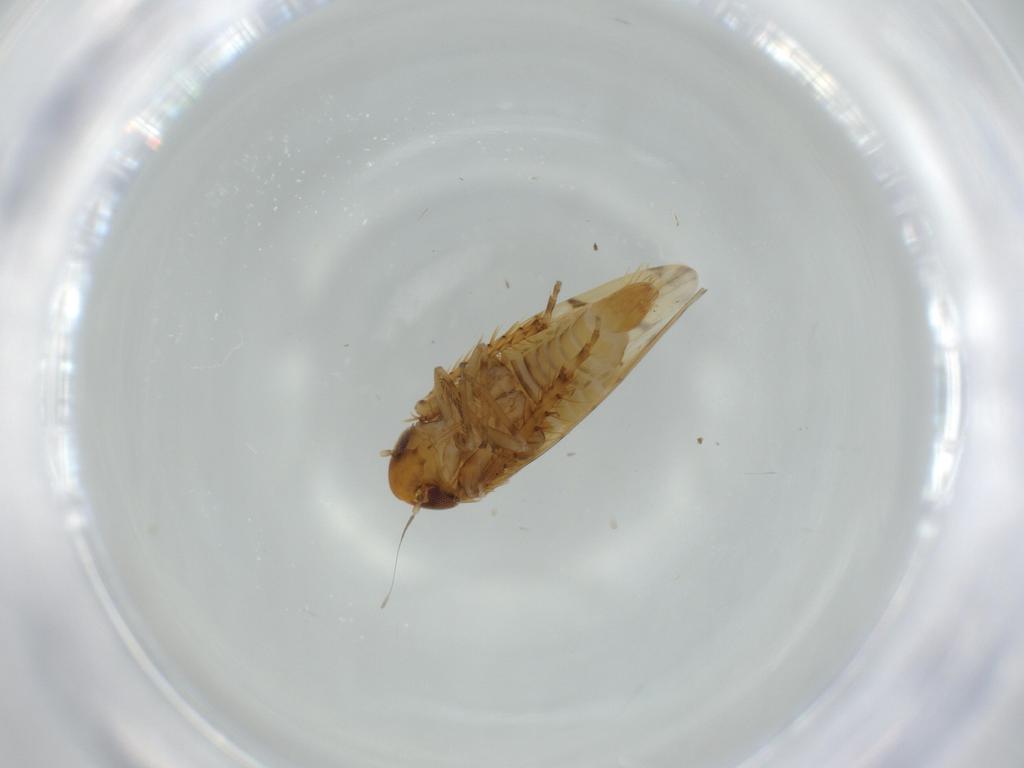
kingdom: Animalia
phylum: Arthropoda
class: Insecta
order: Hemiptera
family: Cicadellidae
